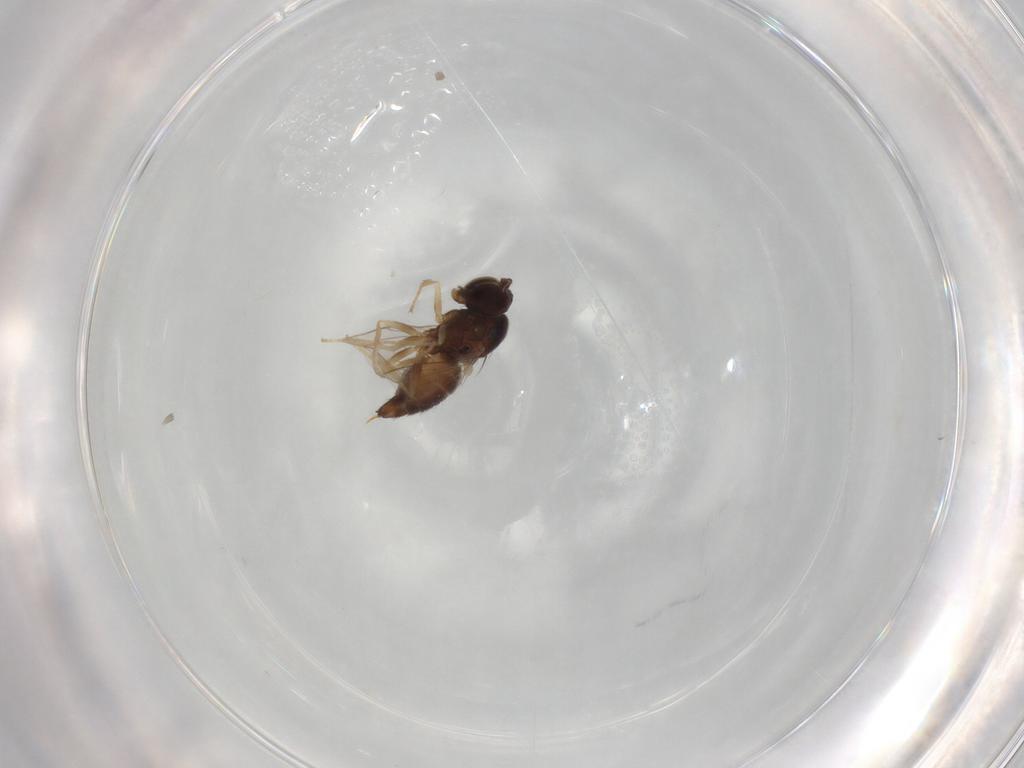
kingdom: Animalia
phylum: Arthropoda
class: Insecta
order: Diptera
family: Dolichopodidae
